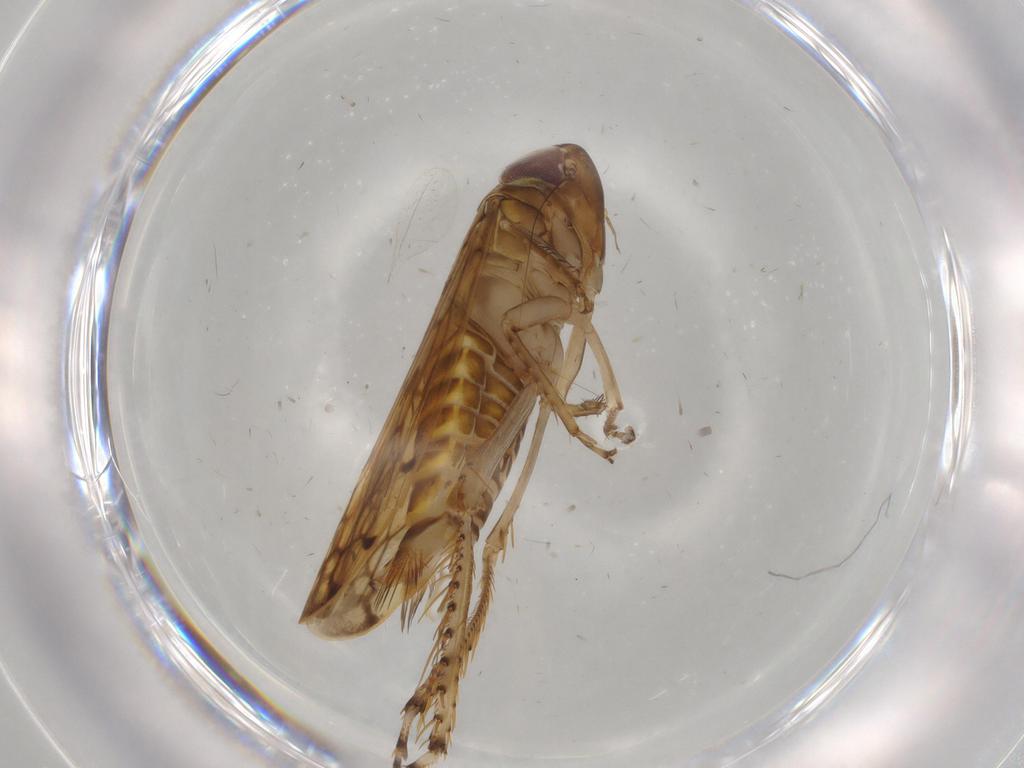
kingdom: Animalia
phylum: Arthropoda
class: Insecta
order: Hemiptera
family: Cicadellidae
